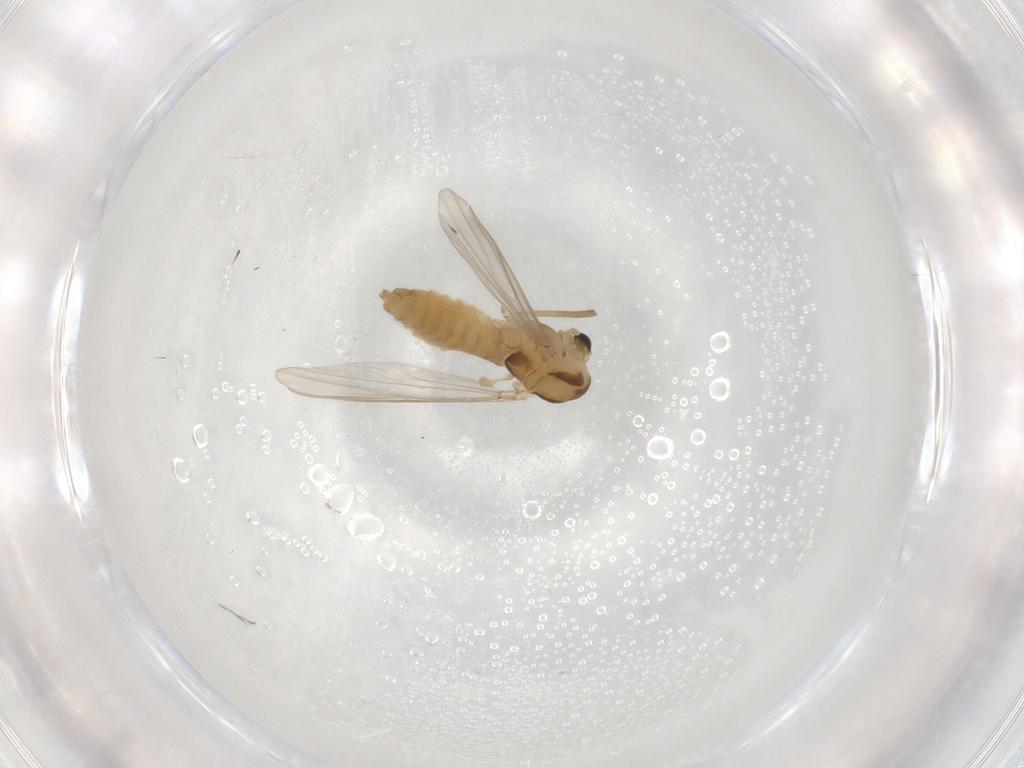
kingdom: Animalia
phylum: Arthropoda
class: Insecta
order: Diptera
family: Chironomidae
